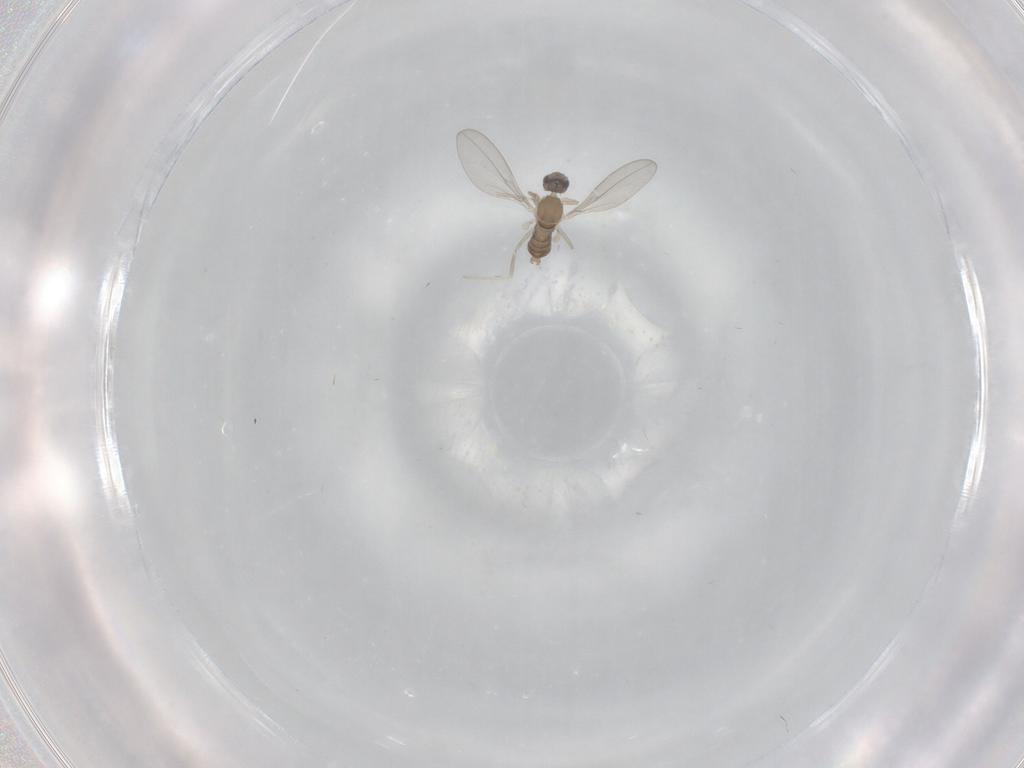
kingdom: Animalia
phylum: Arthropoda
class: Insecta
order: Diptera
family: Cecidomyiidae
